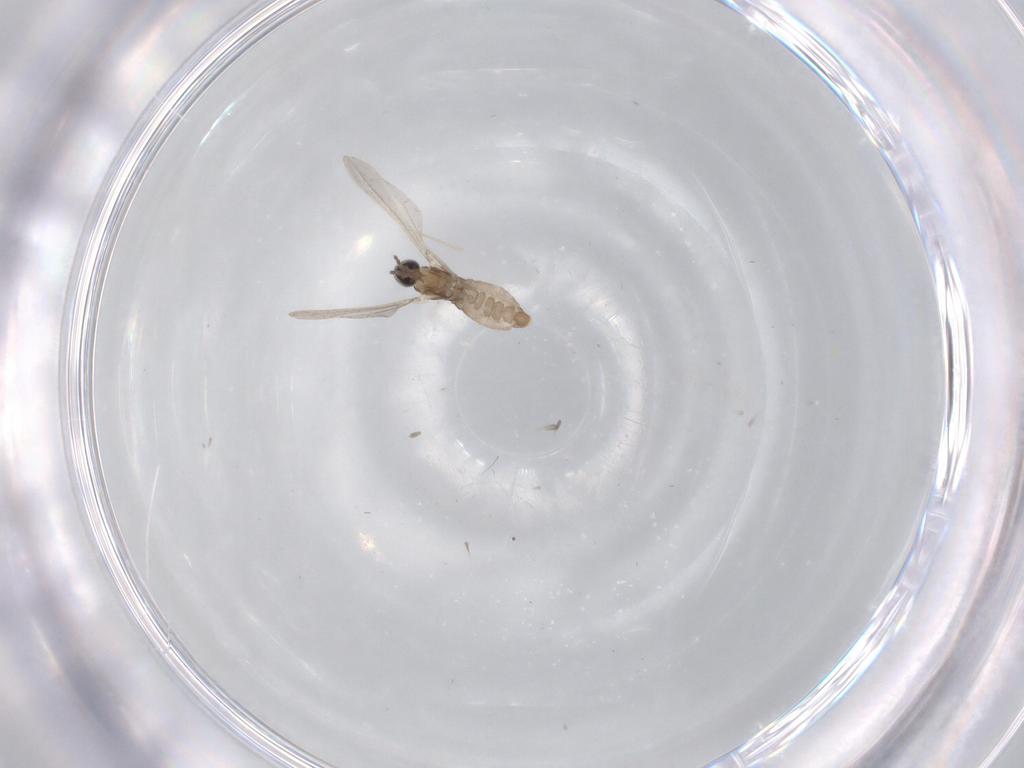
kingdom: Animalia
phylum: Arthropoda
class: Insecta
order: Diptera
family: Cecidomyiidae
